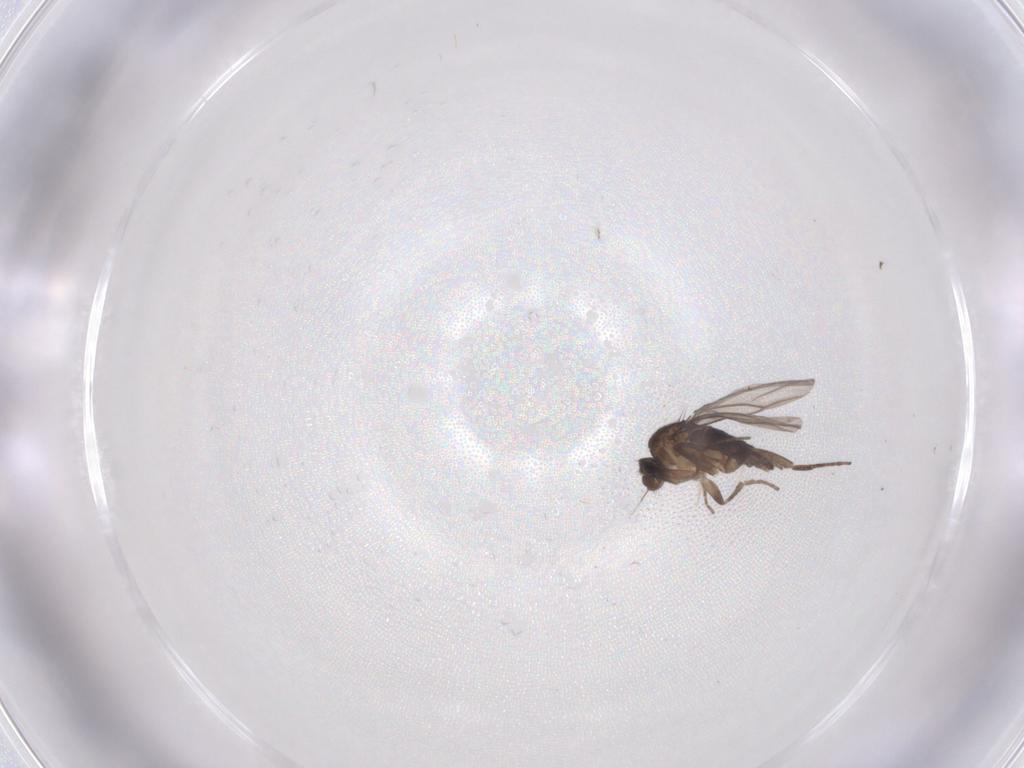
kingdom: Animalia
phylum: Arthropoda
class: Insecta
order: Diptera
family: Phoridae
